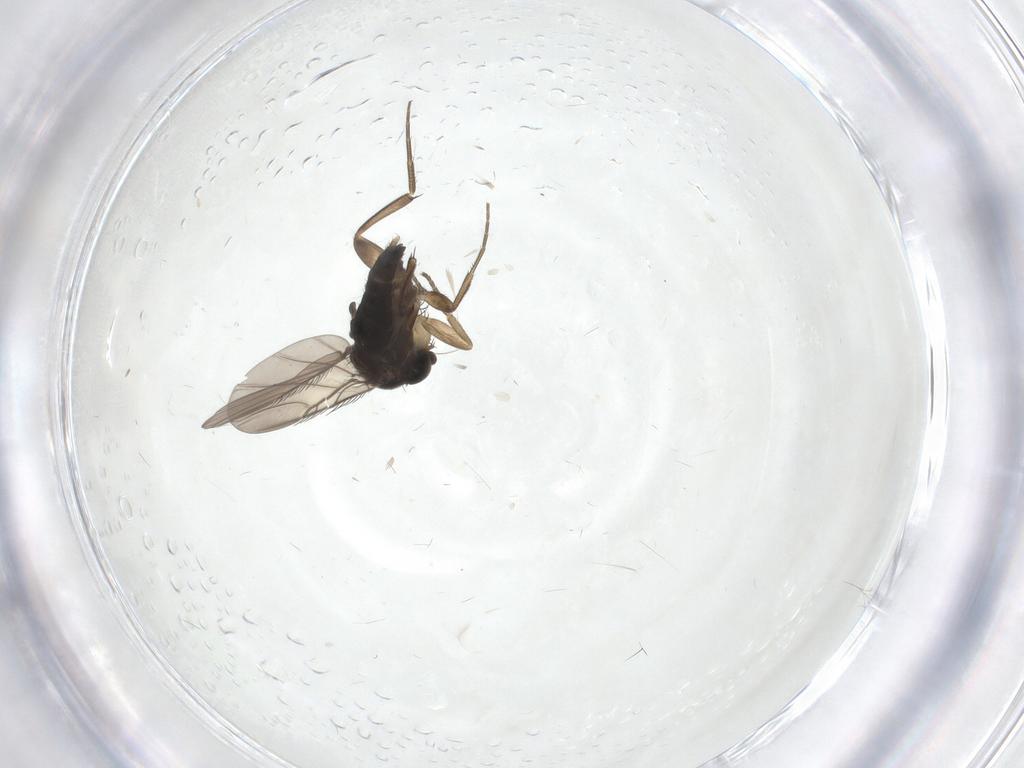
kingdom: Animalia
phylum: Arthropoda
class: Insecta
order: Diptera
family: Phoridae
